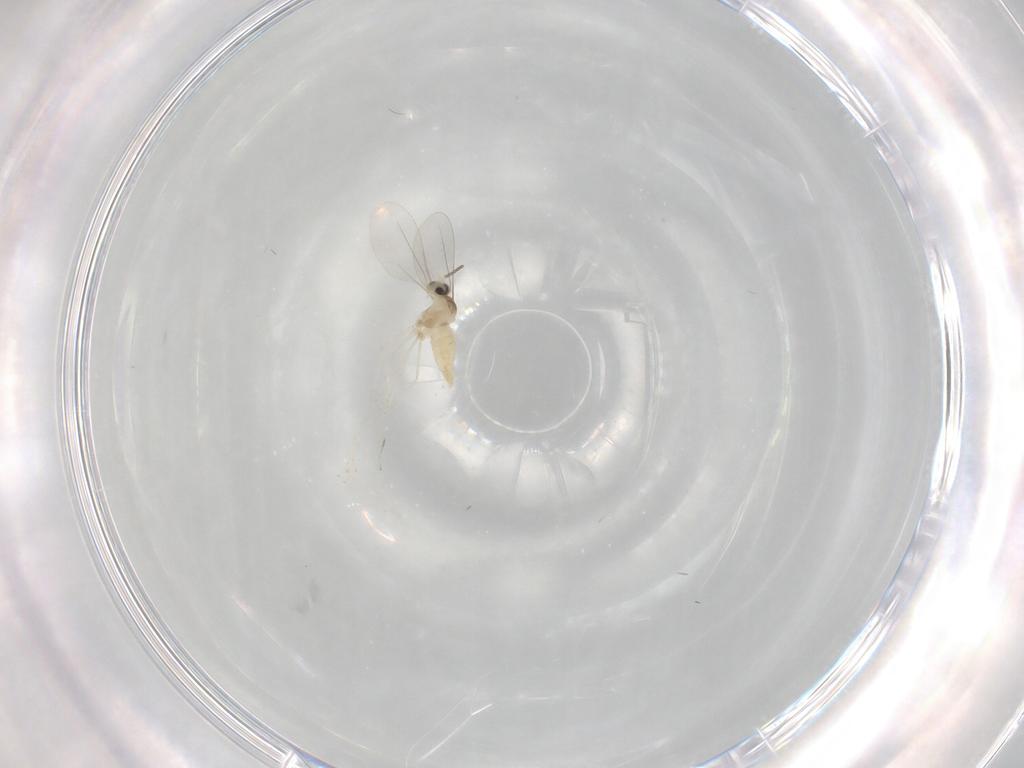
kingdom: Animalia
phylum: Arthropoda
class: Insecta
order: Diptera
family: Cecidomyiidae
